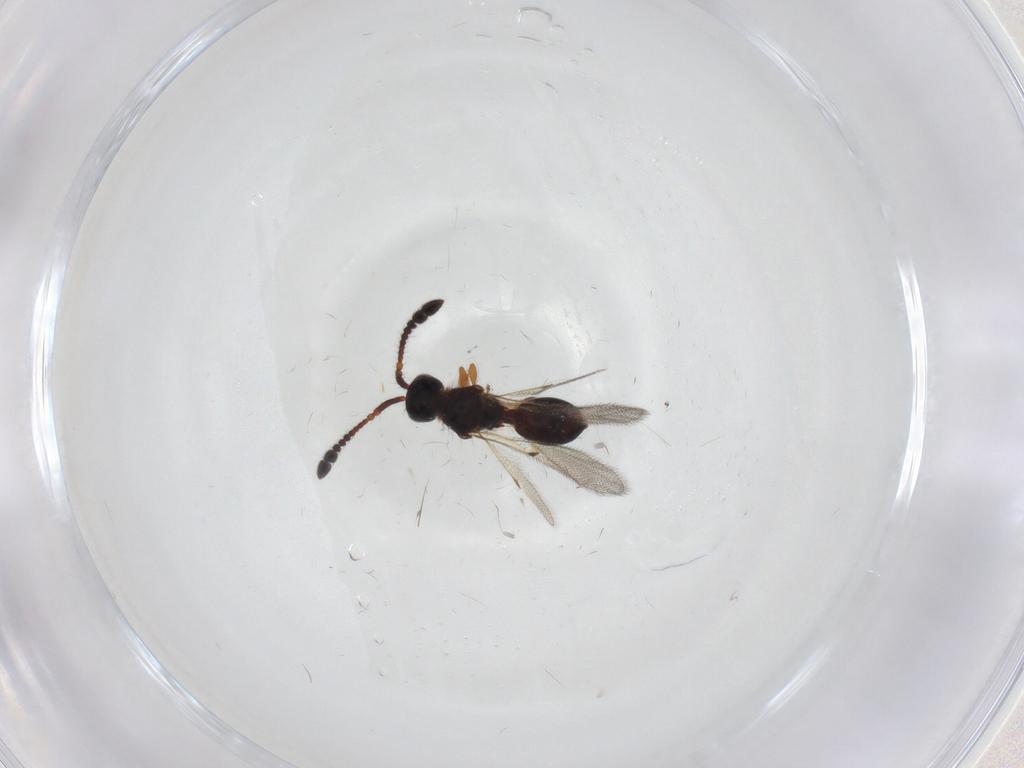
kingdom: Animalia
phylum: Arthropoda
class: Insecta
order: Hymenoptera
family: Diapriidae
